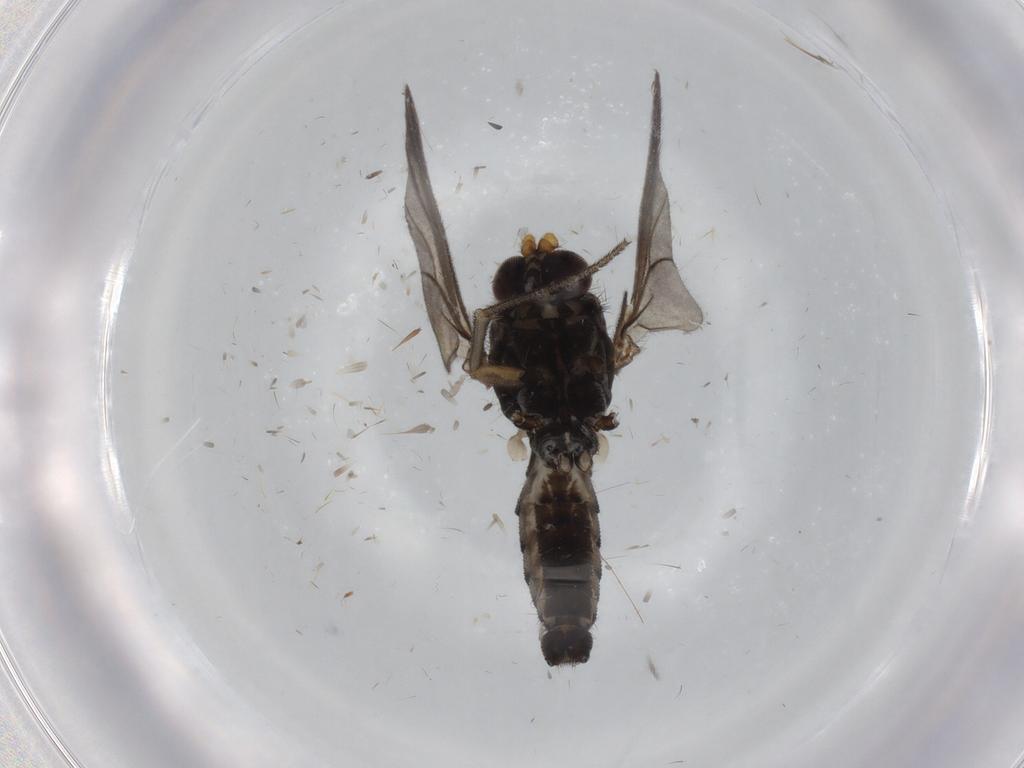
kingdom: Animalia
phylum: Arthropoda
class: Insecta
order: Diptera
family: Mycetophilidae
